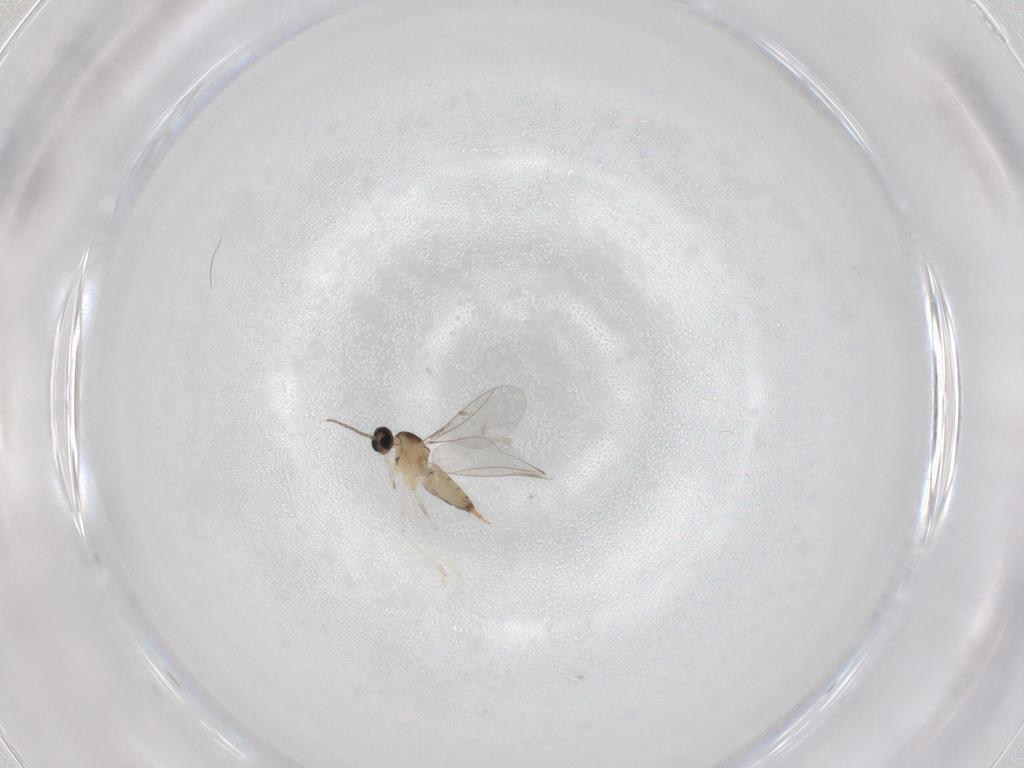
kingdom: Animalia
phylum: Arthropoda
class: Insecta
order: Diptera
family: Cecidomyiidae
